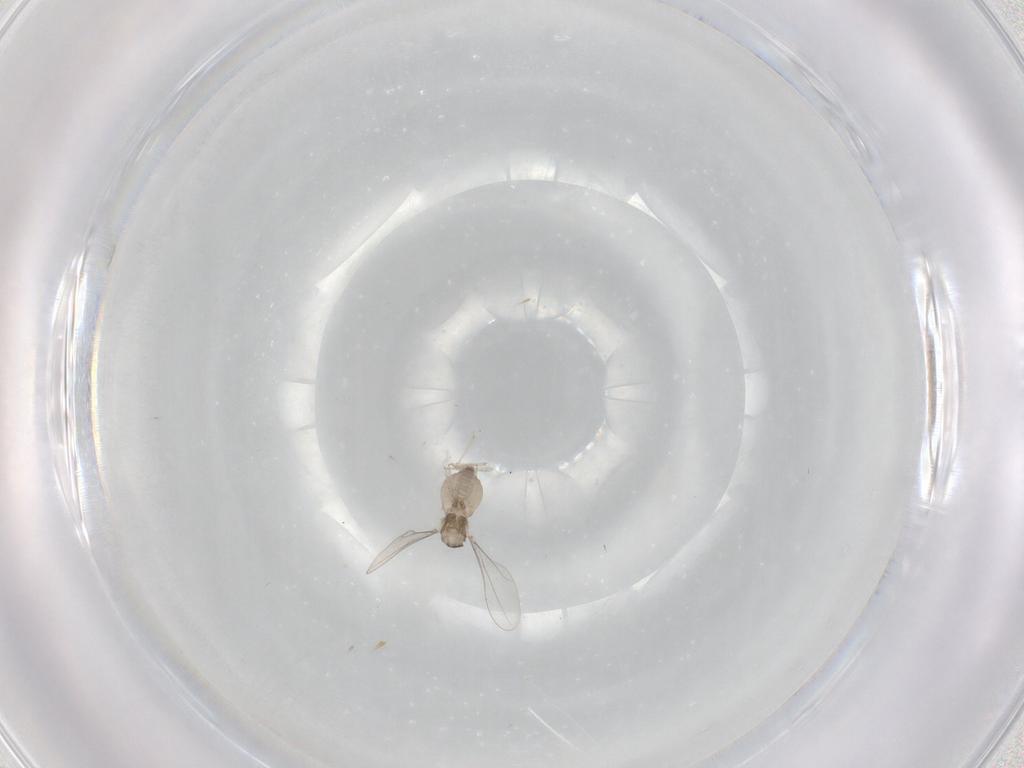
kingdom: Animalia
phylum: Arthropoda
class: Insecta
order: Diptera
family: Cecidomyiidae
